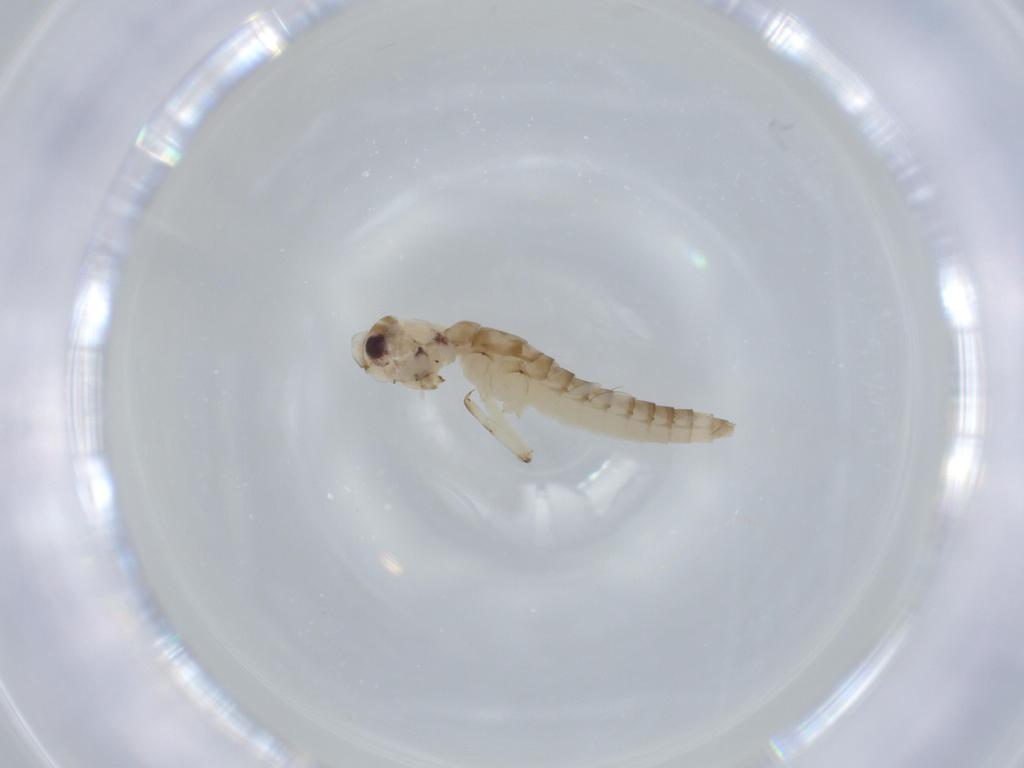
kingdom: Animalia
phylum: Arthropoda
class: Insecta
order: Ephemeroptera
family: Baetidae
